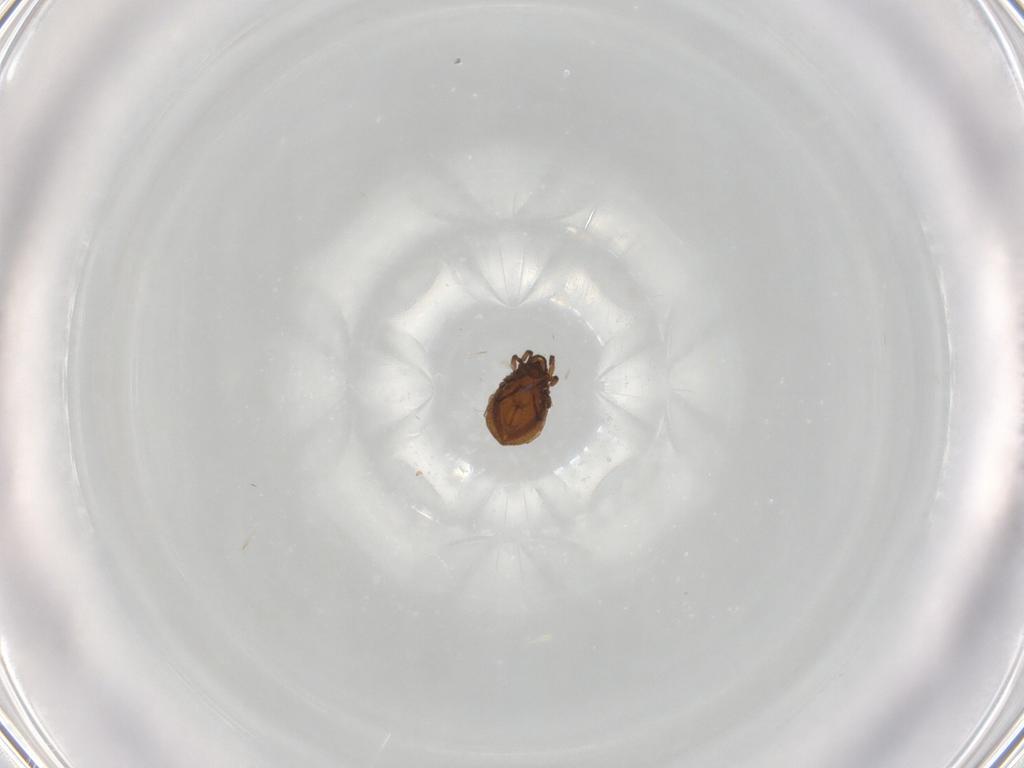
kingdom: Animalia
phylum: Arthropoda
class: Arachnida
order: Sarcoptiformes
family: Cymbaeremaeidae
